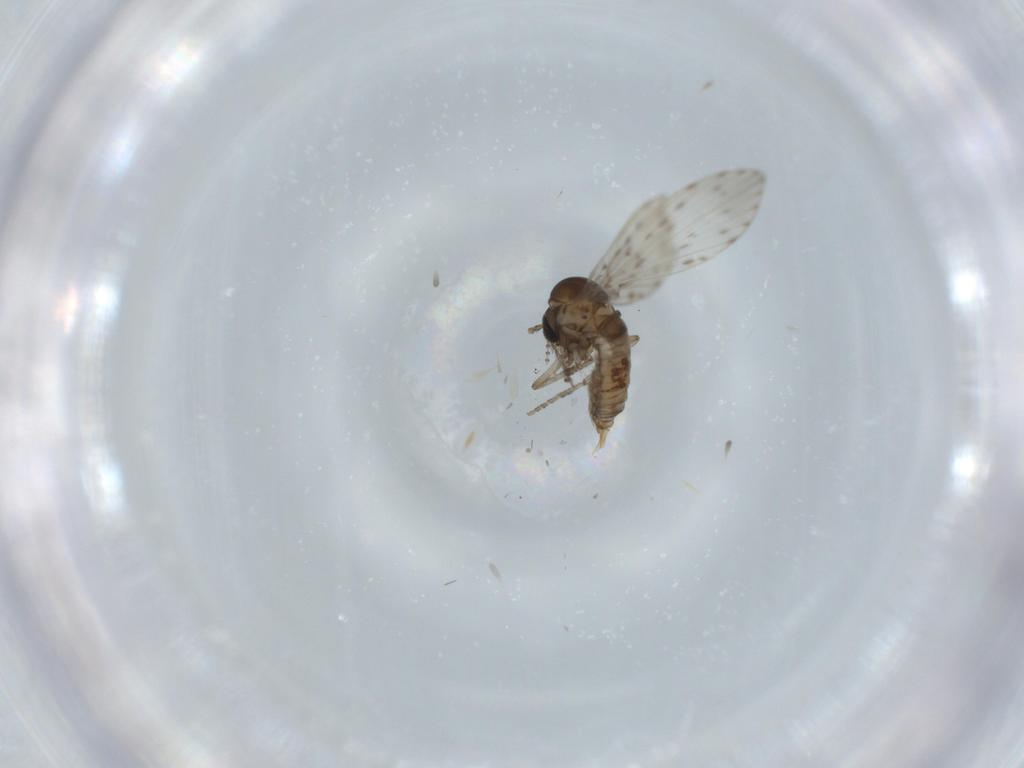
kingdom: Animalia
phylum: Arthropoda
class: Insecta
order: Diptera
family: Psychodidae
